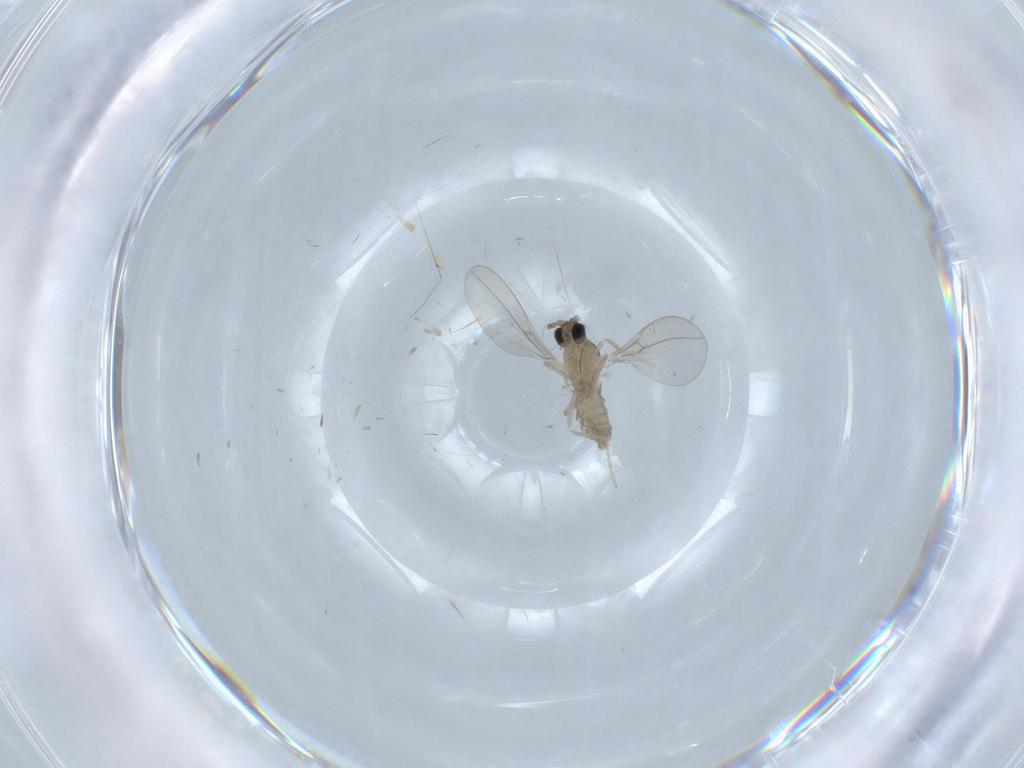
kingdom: Animalia
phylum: Arthropoda
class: Insecta
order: Diptera
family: Cecidomyiidae
